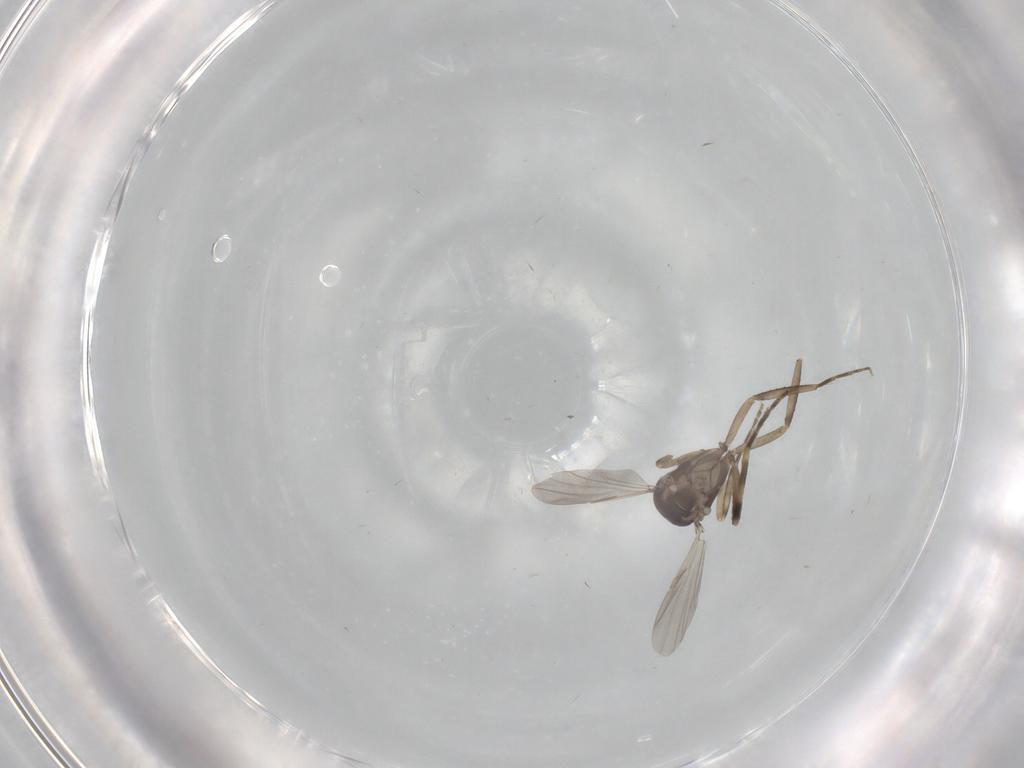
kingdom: Animalia
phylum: Arthropoda
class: Insecta
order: Diptera
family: Ceratopogonidae
